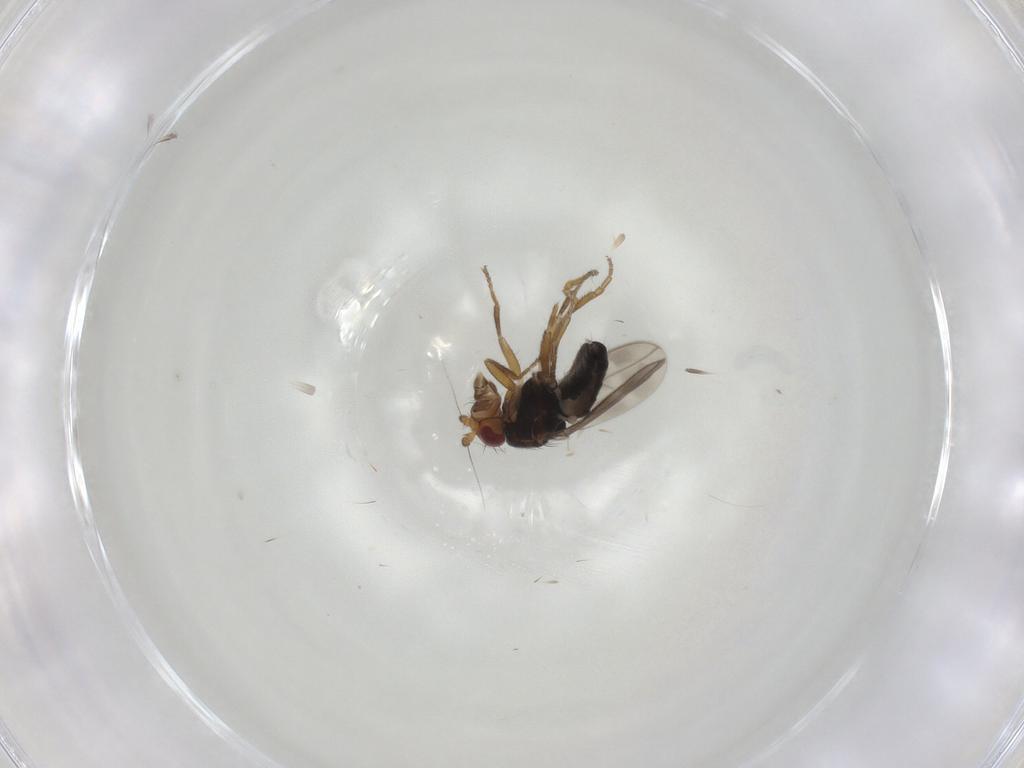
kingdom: Animalia
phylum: Arthropoda
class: Insecta
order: Diptera
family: Sphaeroceridae
